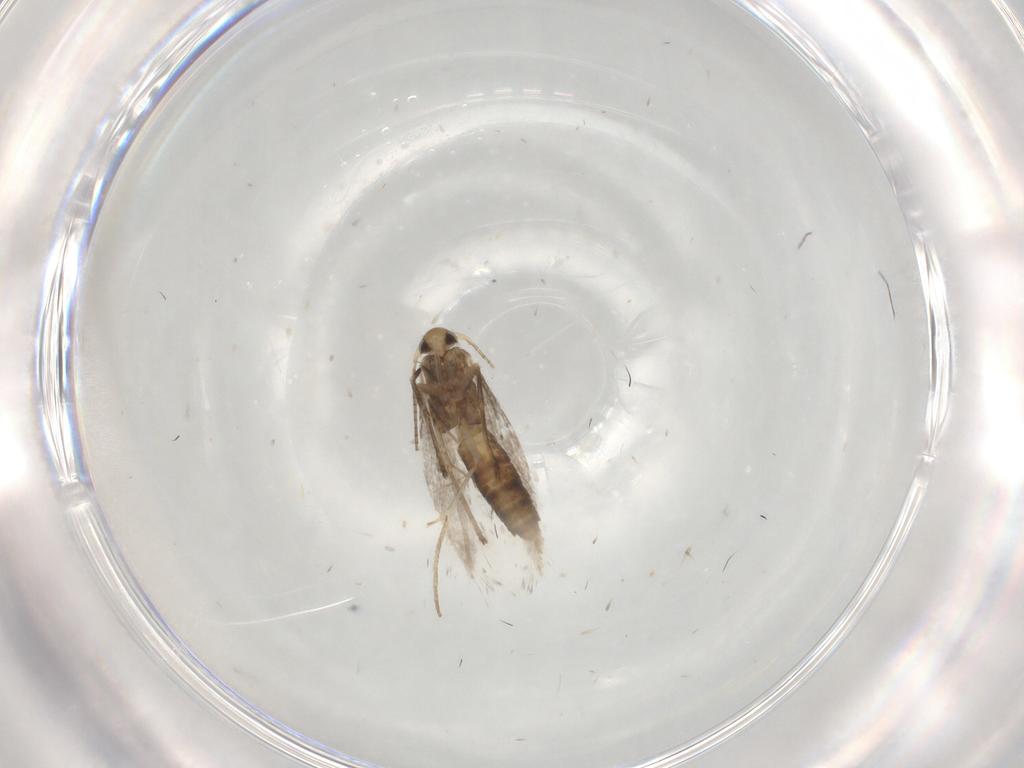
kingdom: Animalia
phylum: Arthropoda
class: Insecta
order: Lepidoptera
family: Gracillariidae
